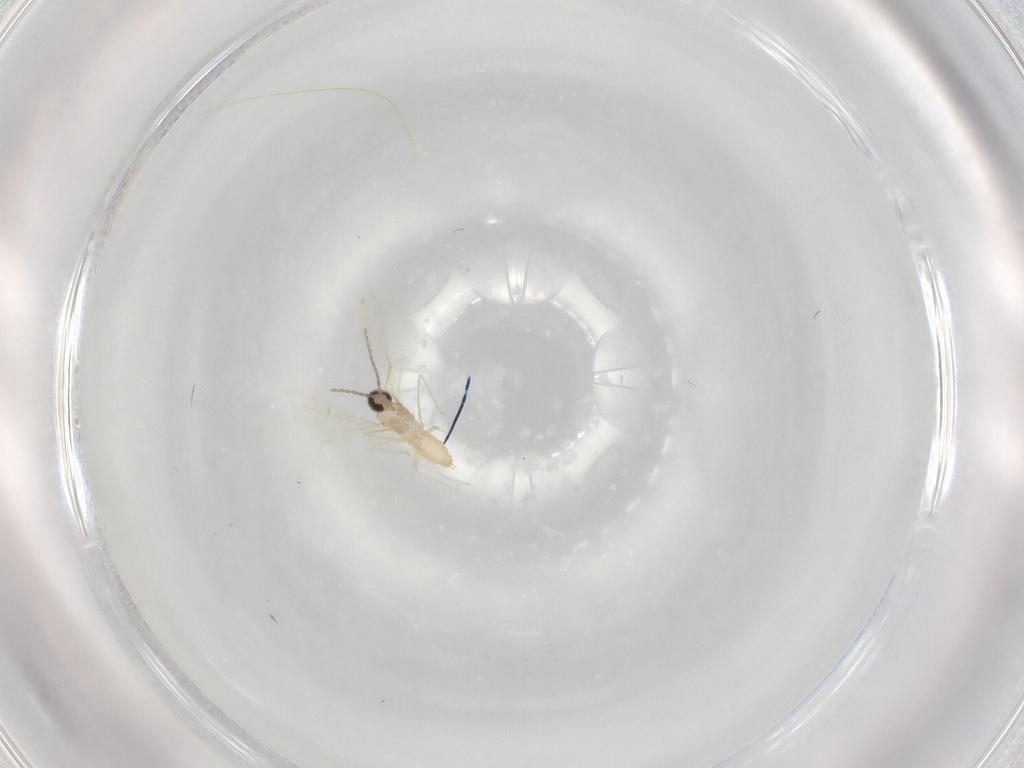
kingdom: Animalia
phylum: Arthropoda
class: Insecta
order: Diptera
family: Cecidomyiidae
